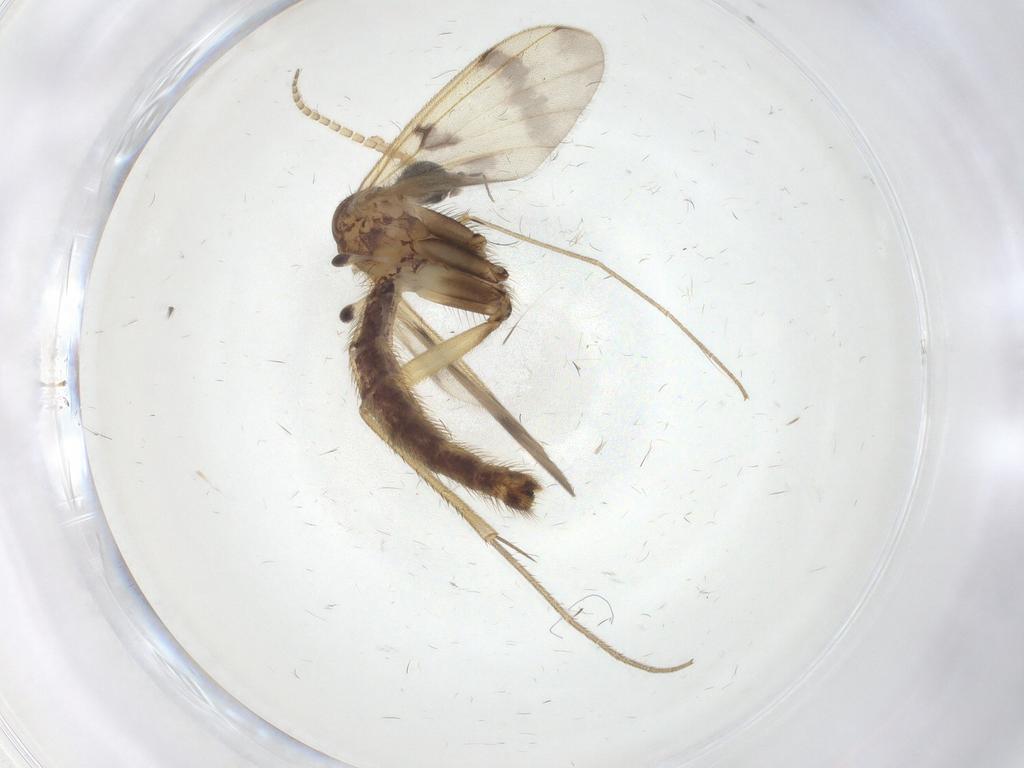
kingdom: Animalia
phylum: Arthropoda
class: Insecta
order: Diptera
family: Mycetophilidae
